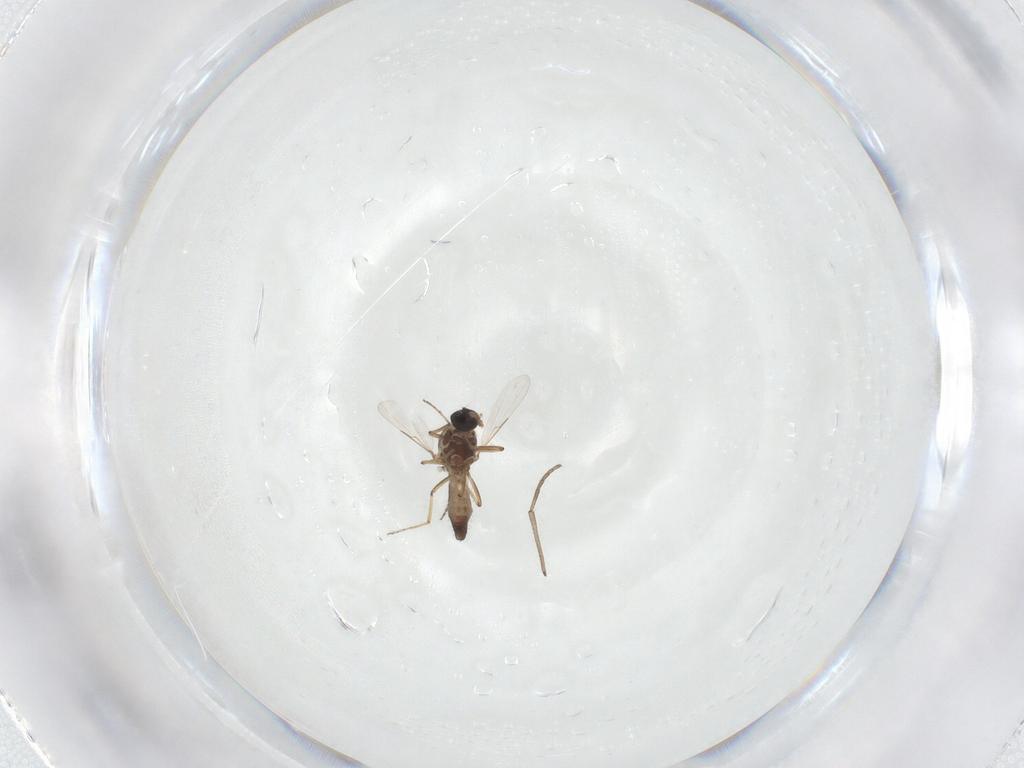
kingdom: Animalia
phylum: Arthropoda
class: Insecta
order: Diptera
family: Ceratopogonidae
